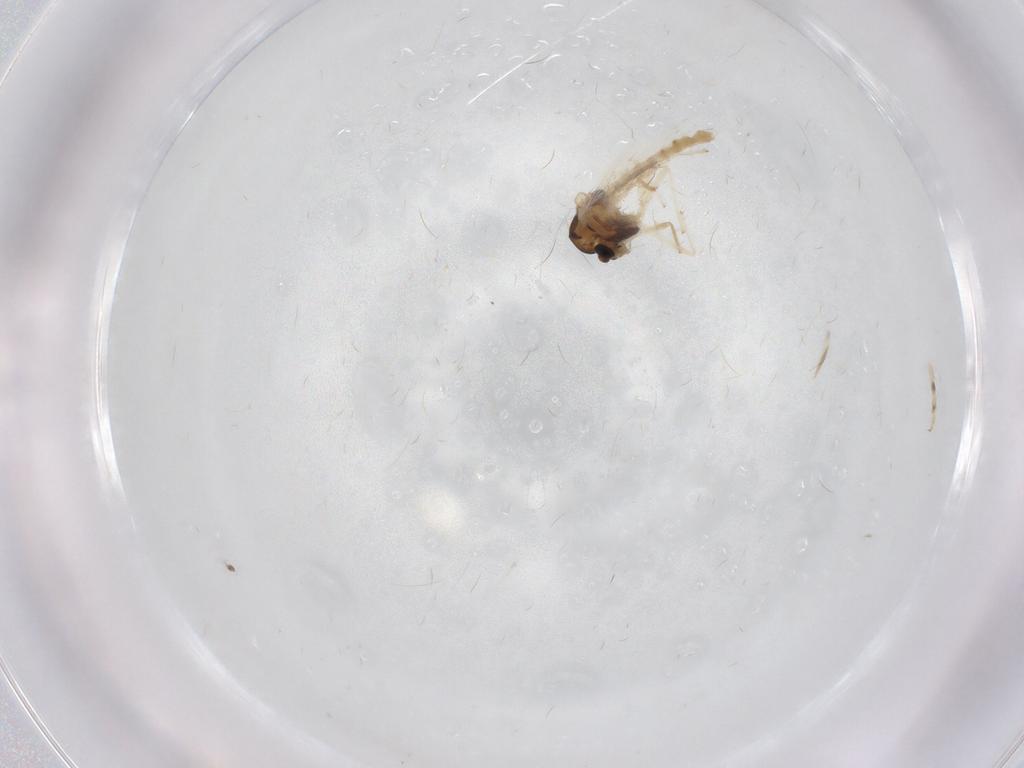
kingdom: Animalia
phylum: Arthropoda
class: Insecta
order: Diptera
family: Chironomidae
